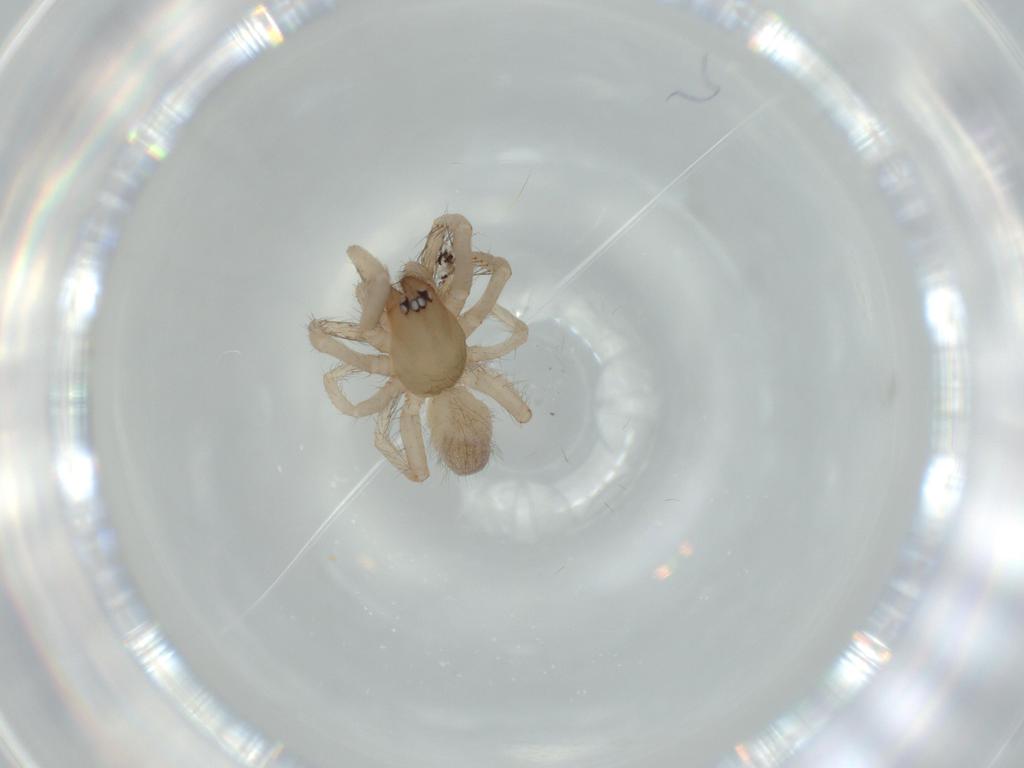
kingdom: Animalia
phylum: Arthropoda
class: Arachnida
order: Araneae
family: Segestriidae
